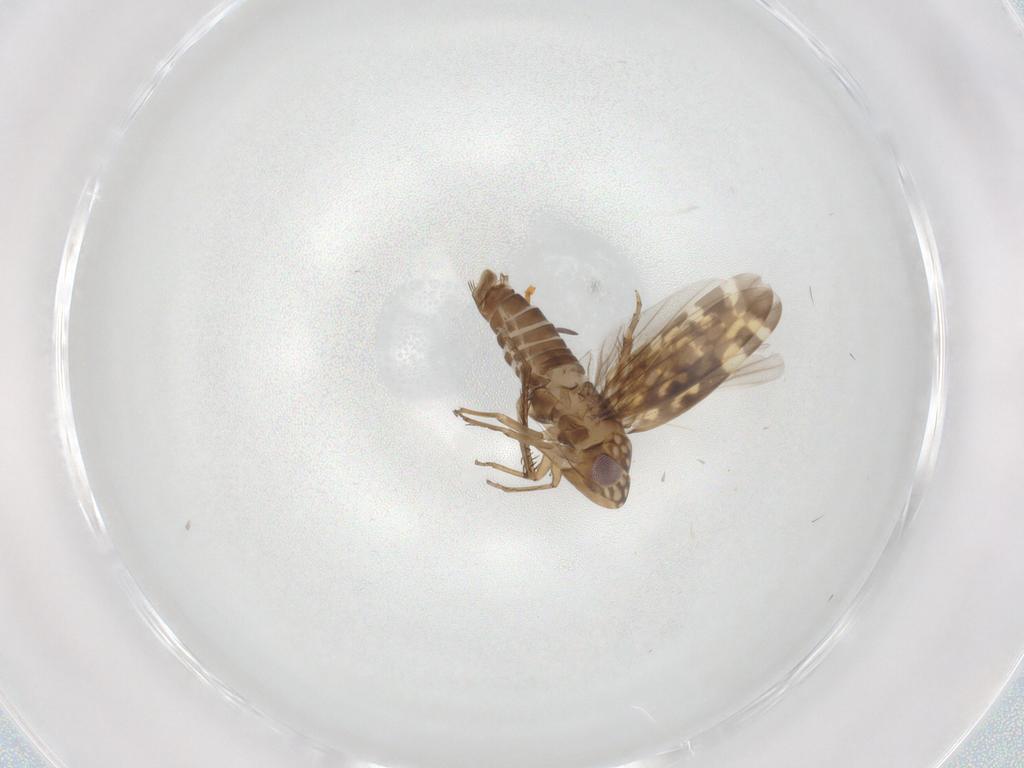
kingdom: Animalia
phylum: Arthropoda
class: Insecta
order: Hemiptera
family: Cicadellidae
